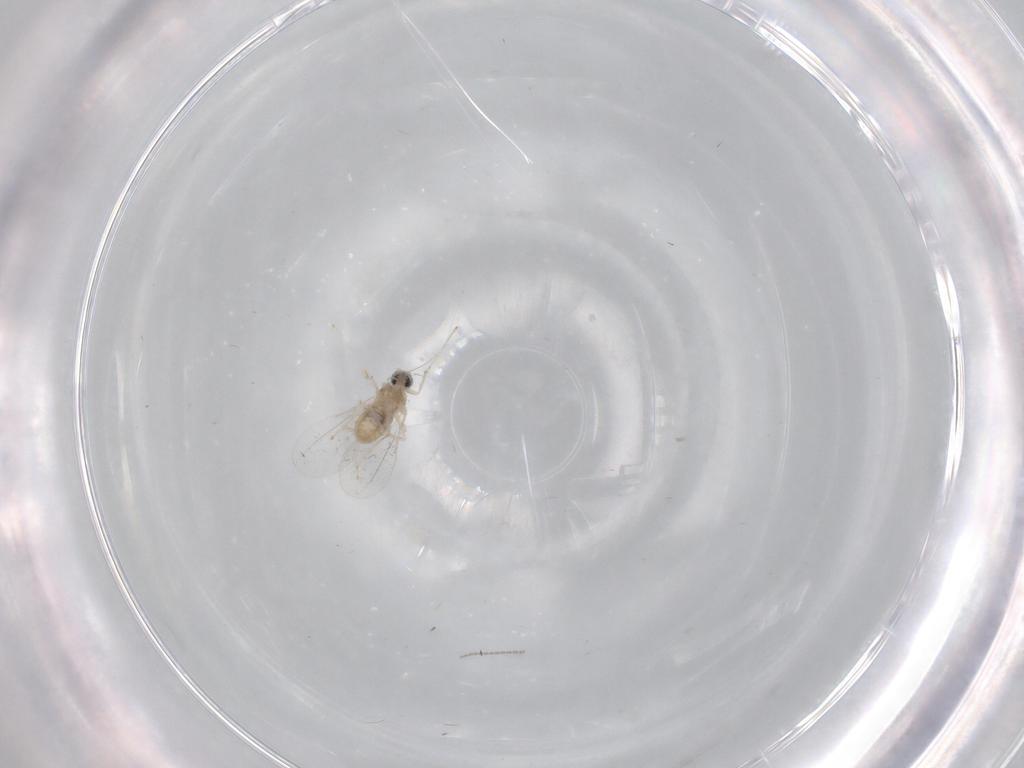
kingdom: Animalia
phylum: Arthropoda
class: Insecta
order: Diptera
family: Cecidomyiidae
